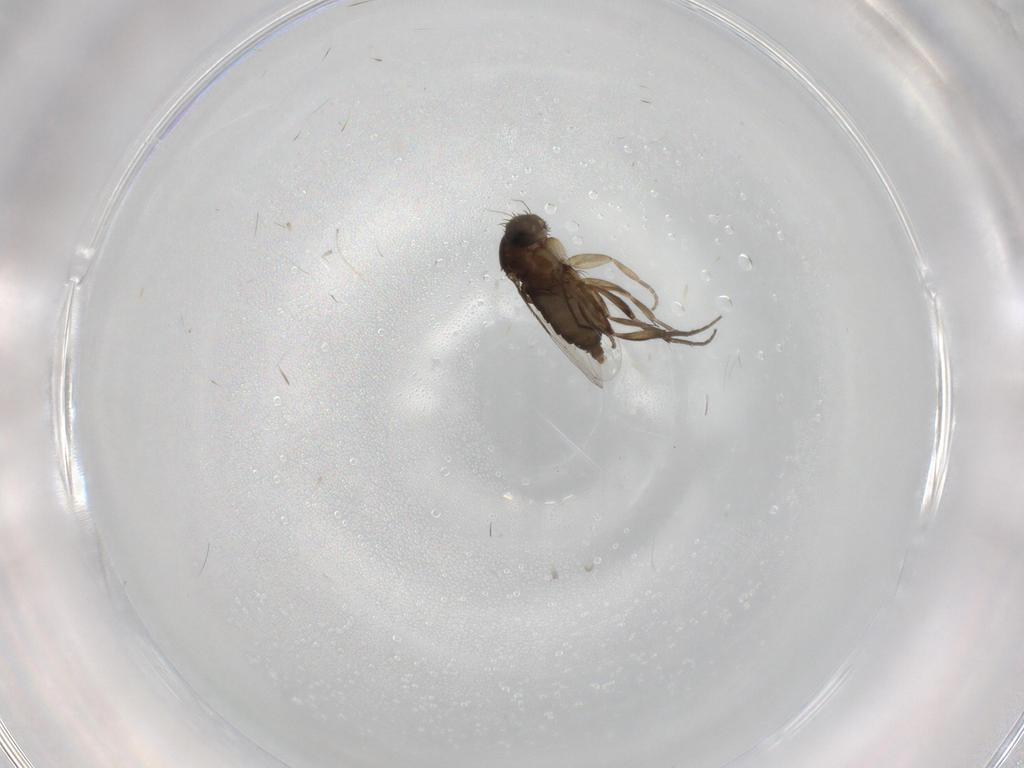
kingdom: Animalia
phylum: Arthropoda
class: Insecta
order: Diptera
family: Phoridae
